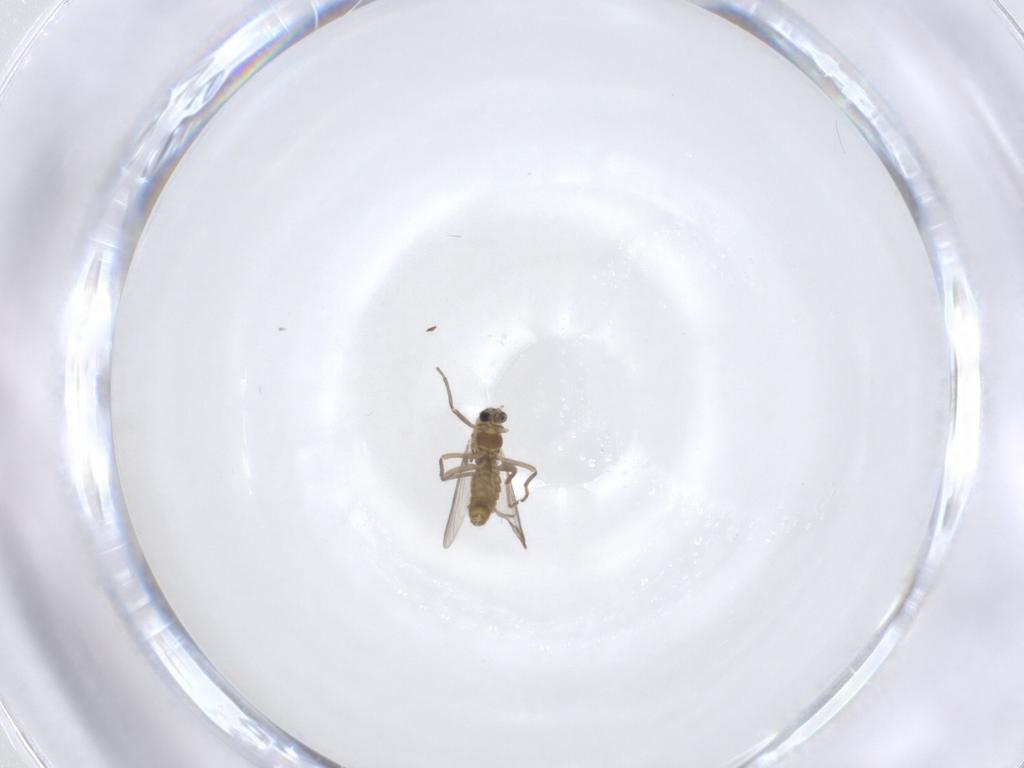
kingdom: Animalia
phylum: Arthropoda
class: Insecta
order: Diptera
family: Chironomidae
